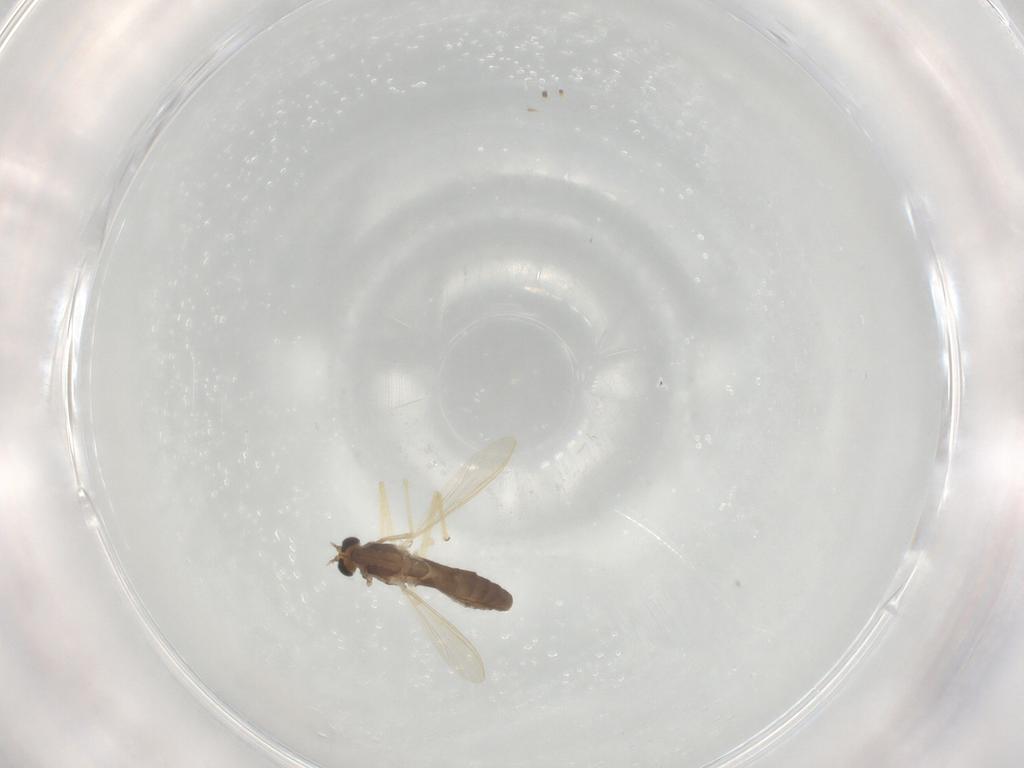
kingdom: Animalia
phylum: Arthropoda
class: Insecta
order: Diptera
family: Chironomidae
